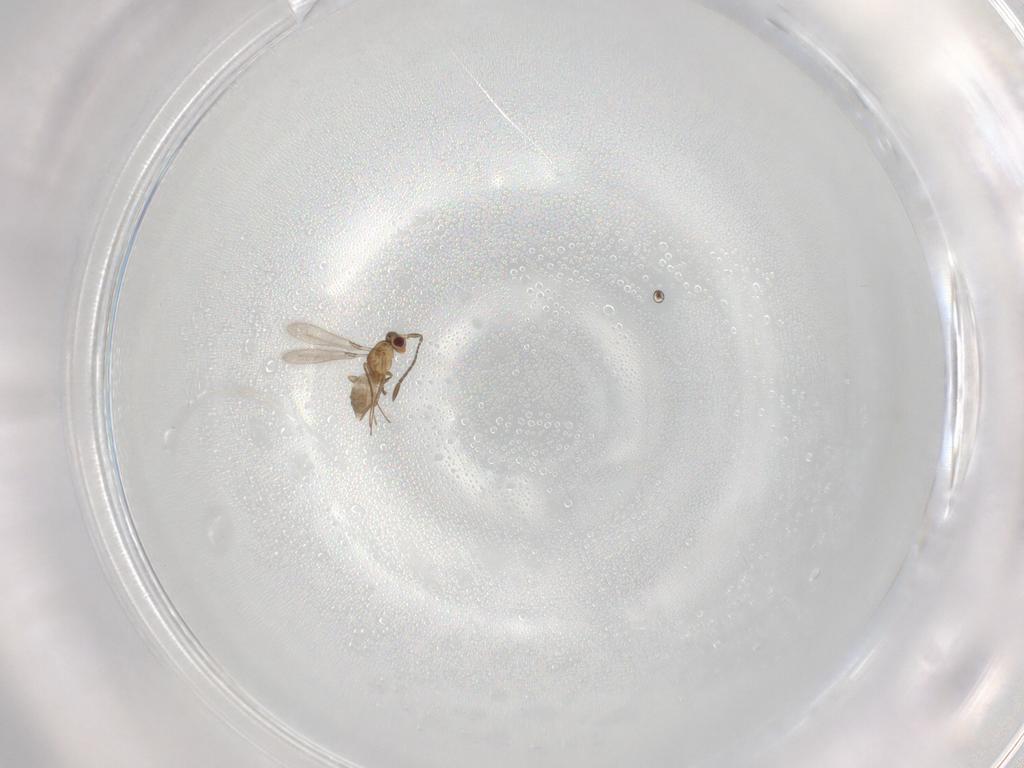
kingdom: Animalia
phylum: Arthropoda
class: Insecta
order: Hymenoptera
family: Mymaridae
